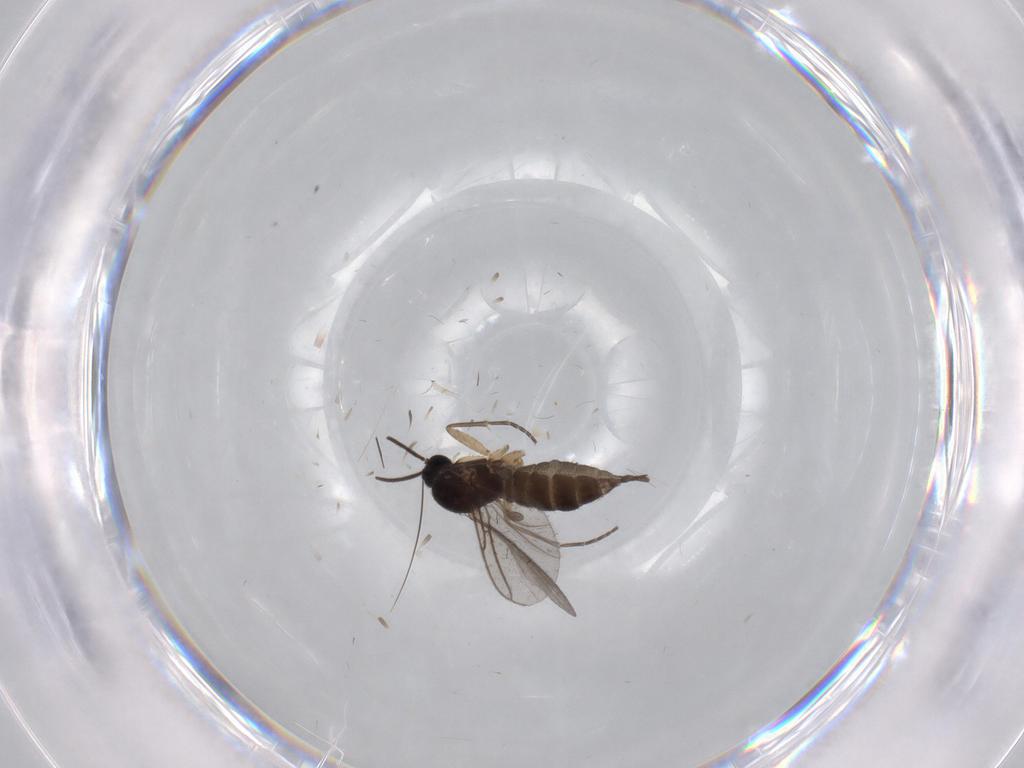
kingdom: Animalia
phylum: Arthropoda
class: Insecta
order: Diptera
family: Sciaridae
